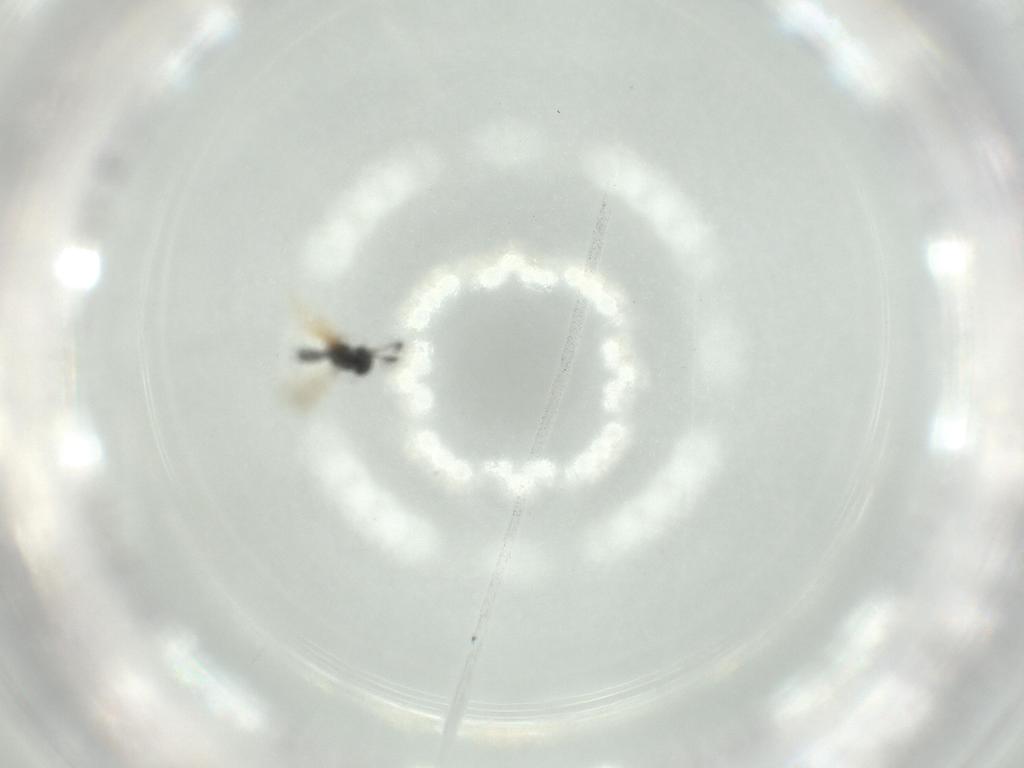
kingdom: Animalia
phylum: Arthropoda
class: Insecta
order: Hymenoptera
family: Scelionidae
